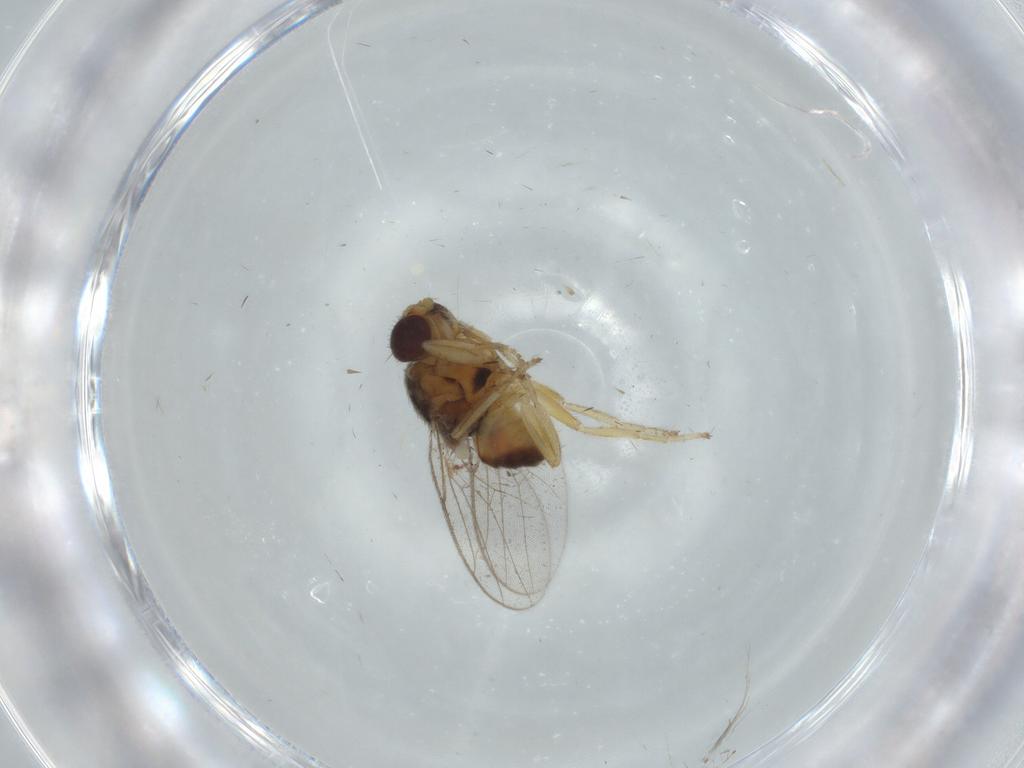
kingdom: Animalia
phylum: Arthropoda
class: Insecta
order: Diptera
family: Chloropidae
